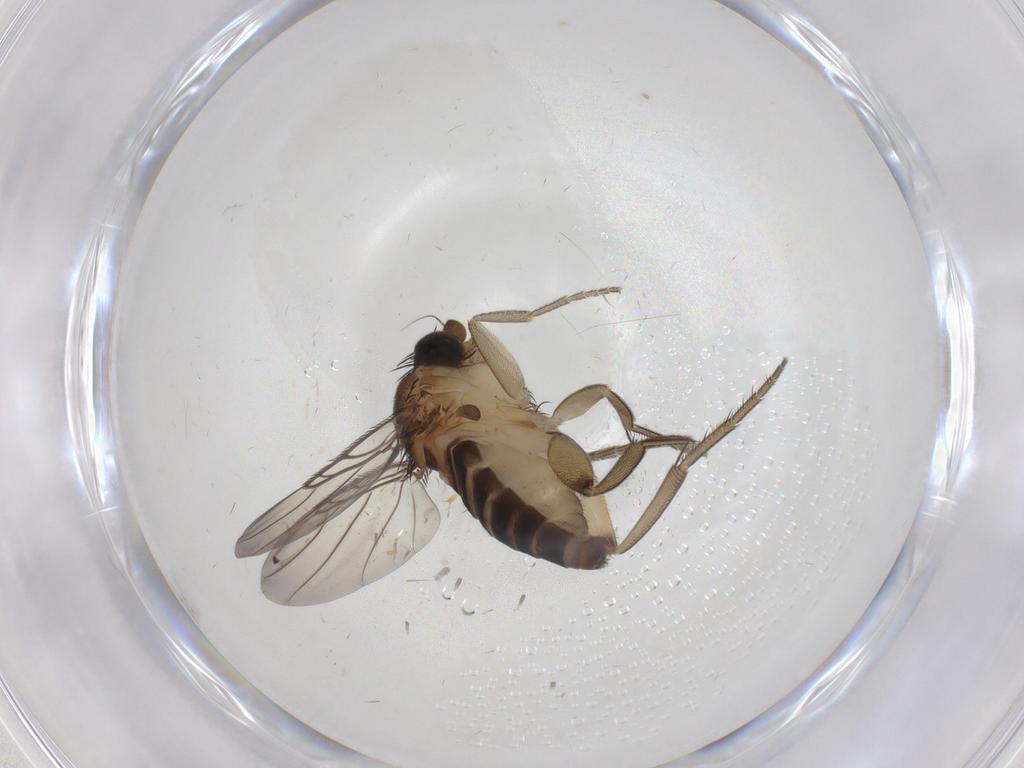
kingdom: Animalia
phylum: Arthropoda
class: Insecta
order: Diptera
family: Phoridae
